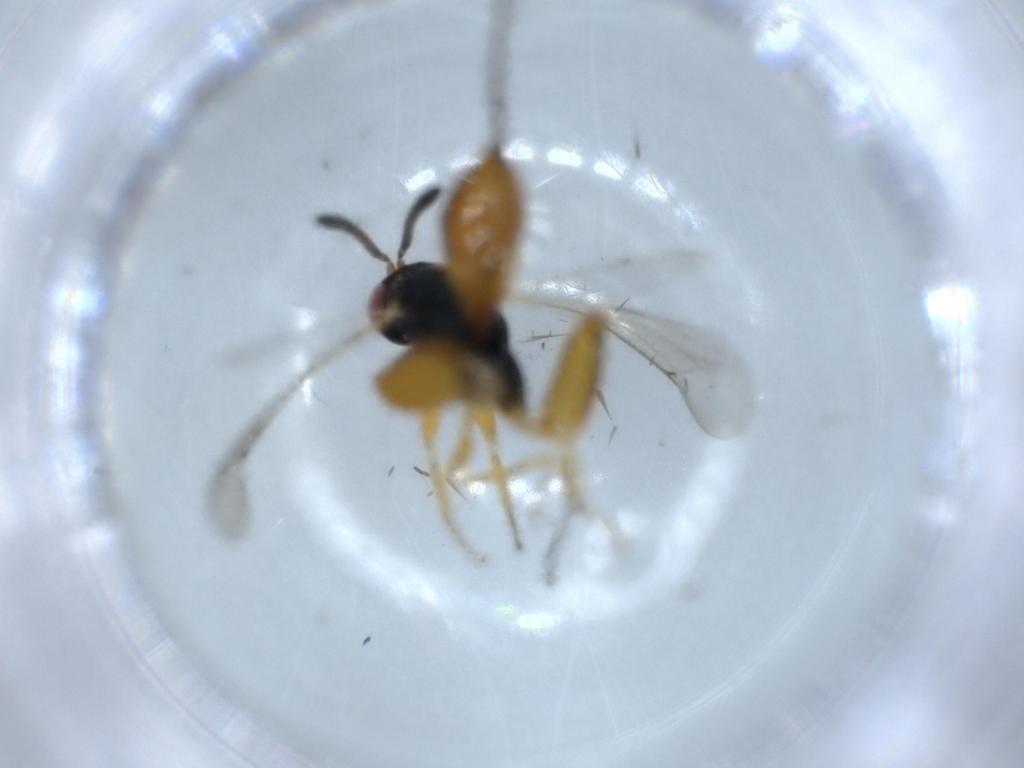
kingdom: Animalia
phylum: Arthropoda
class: Insecta
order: Hymenoptera
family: Torymidae
